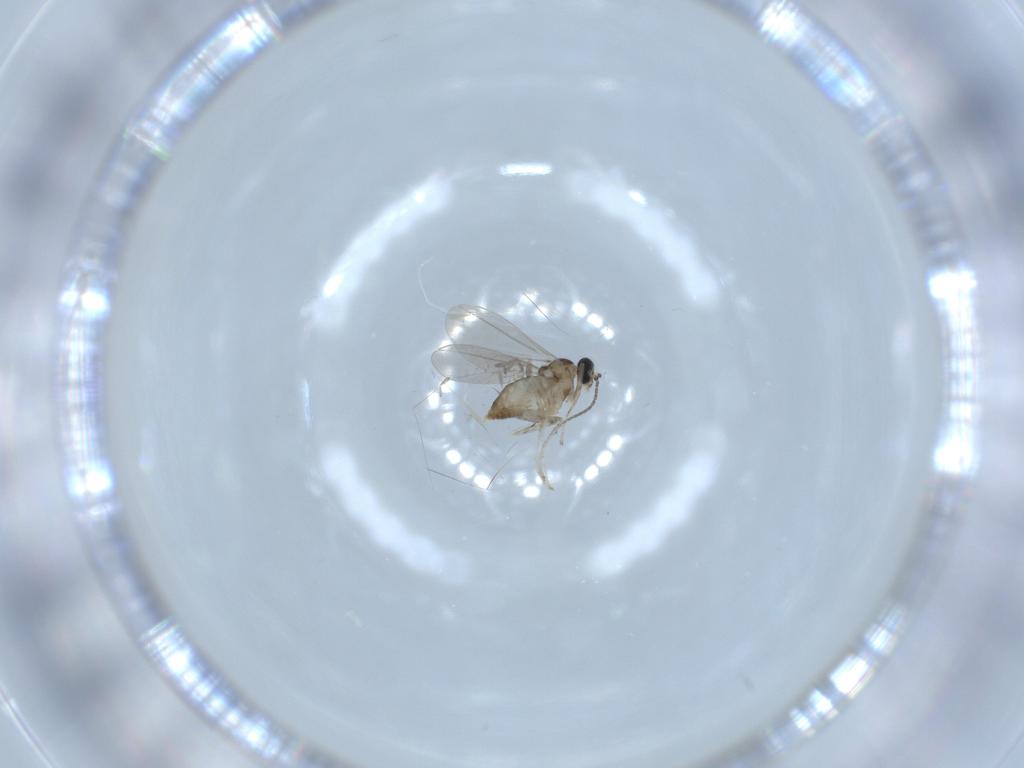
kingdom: Animalia
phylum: Arthropoda
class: Insecta
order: Diptera
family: Cecidomyiidae
